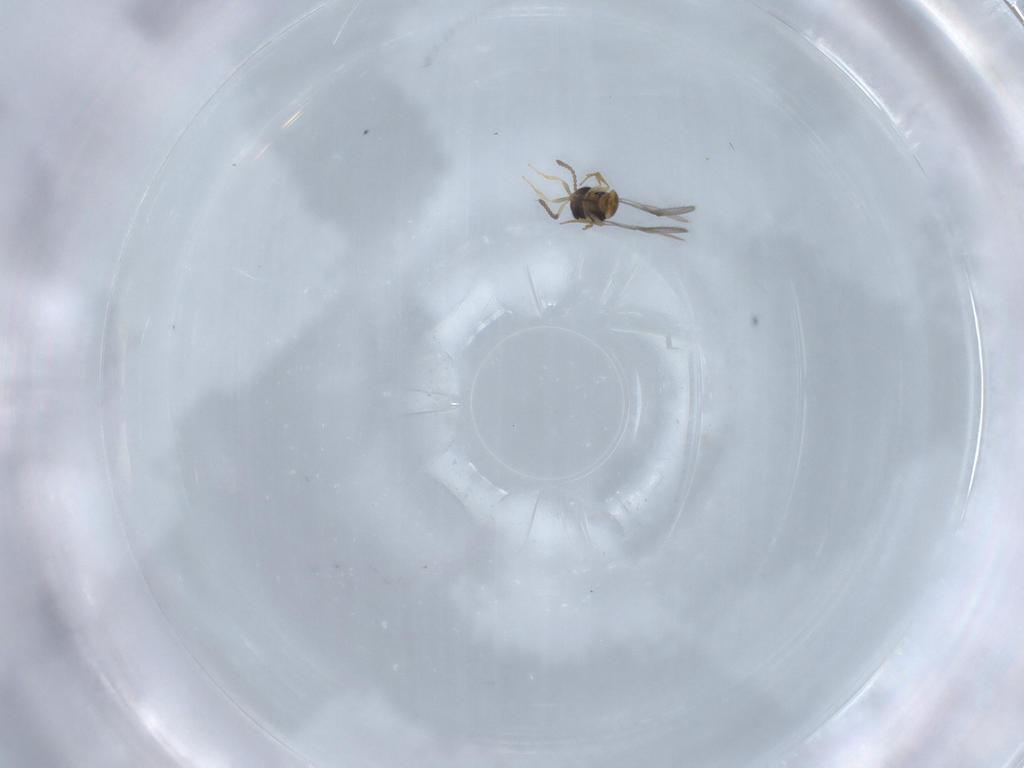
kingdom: Animalia
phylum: Arthropoda
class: Insecta
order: Hymenoptera
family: Scelionidae
